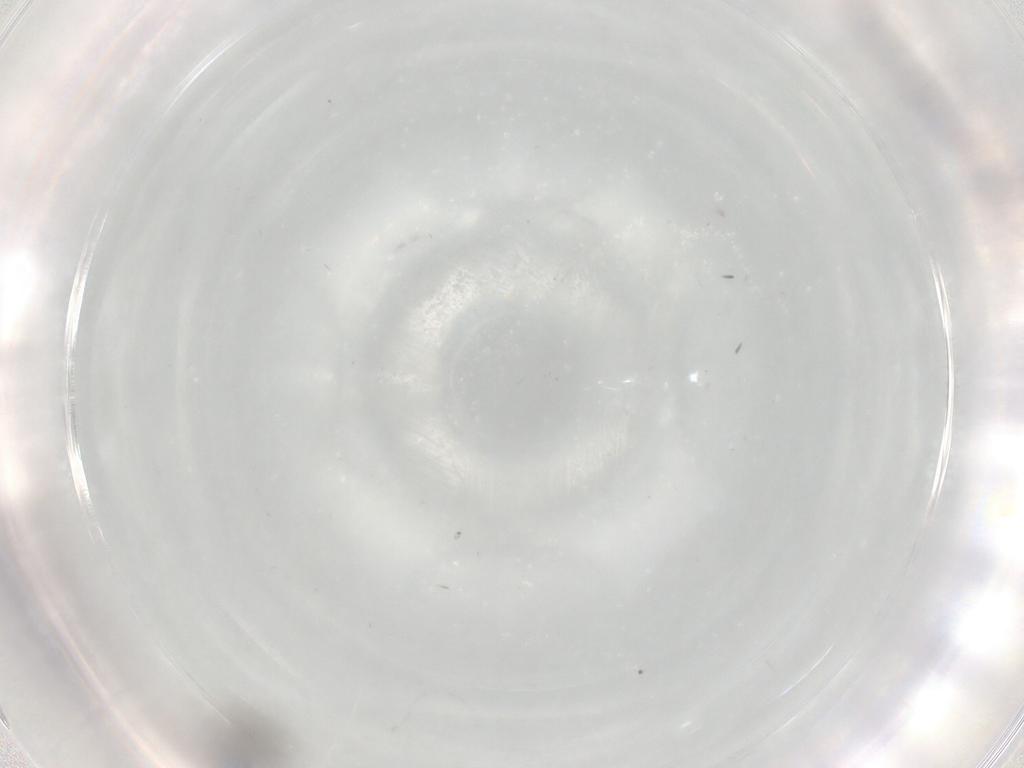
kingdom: Animalia
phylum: Arthropoda
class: Insecta
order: Hymenoptera
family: Scelionidae
